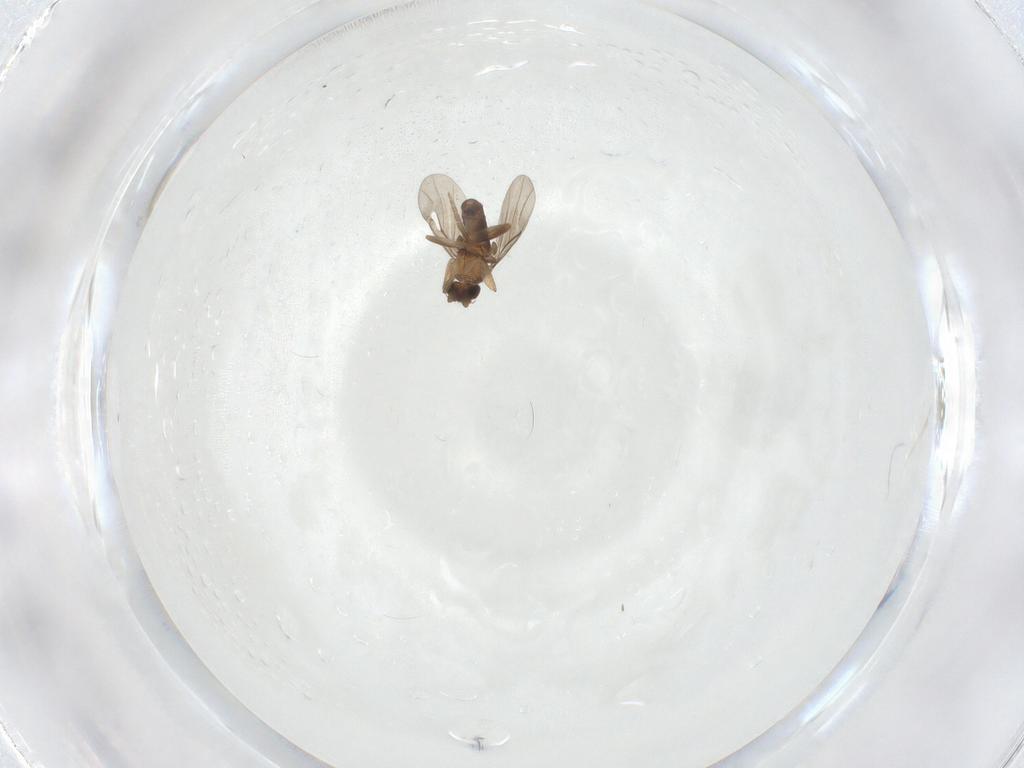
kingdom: Animalia
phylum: Arthropoda
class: Insecta
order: Diptera
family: Phoridae
